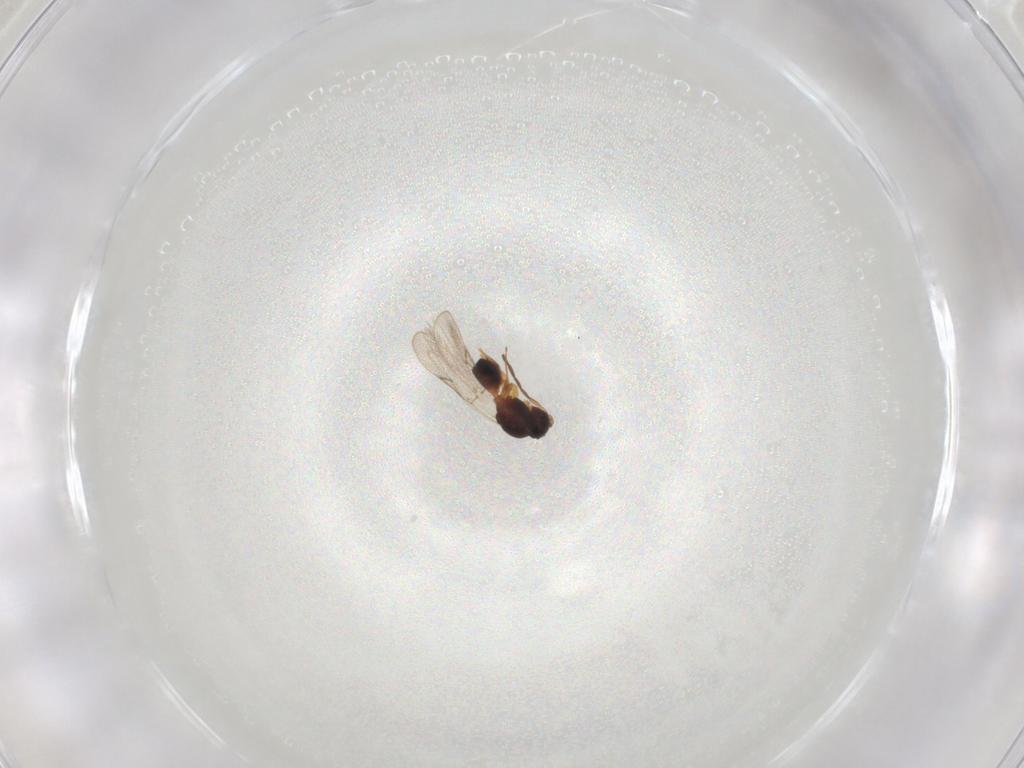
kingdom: Animalia
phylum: Arthropoda
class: Insecta
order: Hymenoptera
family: Figitidae
